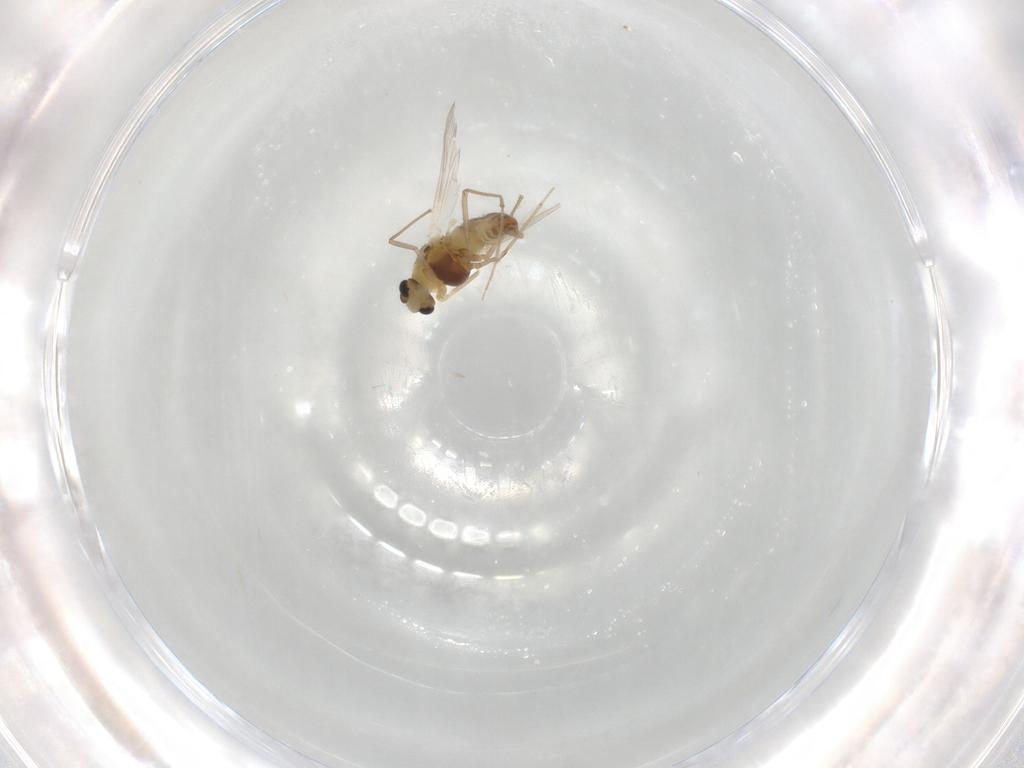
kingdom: Animalia
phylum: Arthropoda
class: Insecta
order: Diptera
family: Chironomidae
